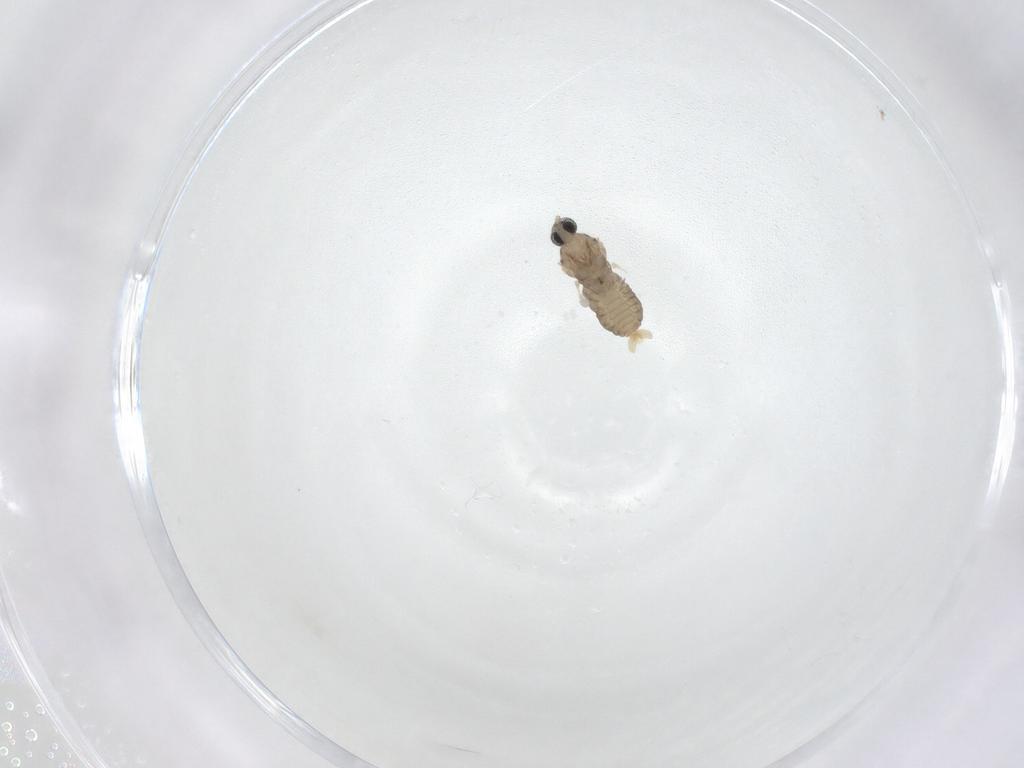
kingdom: Animalia
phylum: Arthropoda
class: Insecta
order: Diptera
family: Cecidomyiidae
